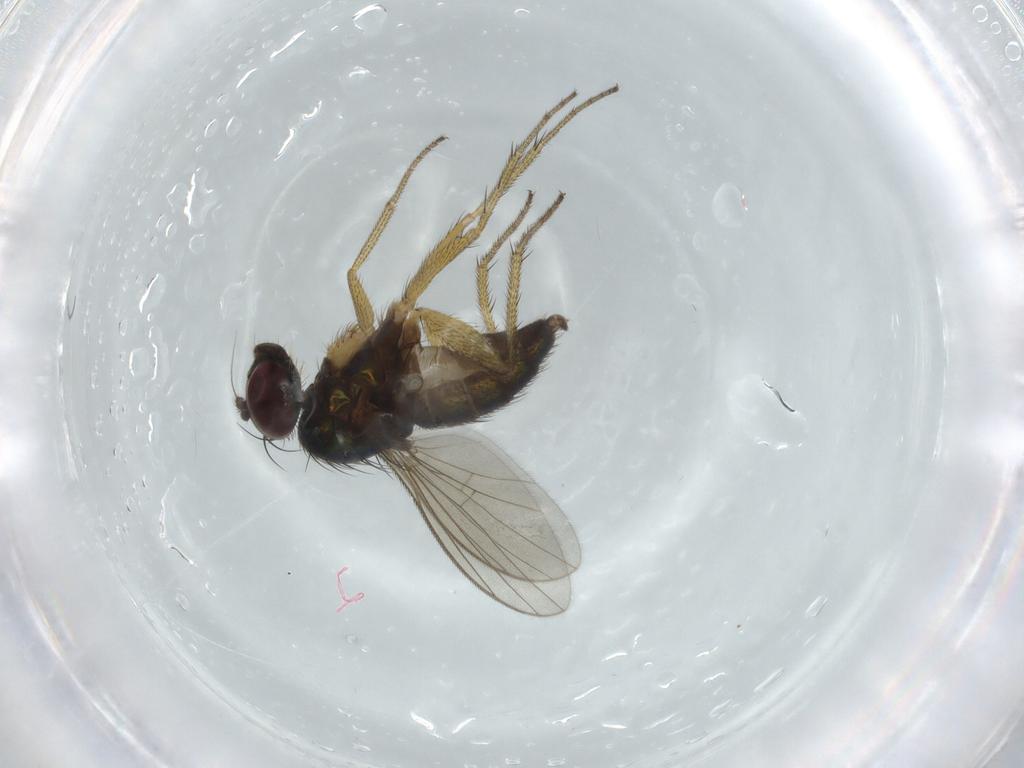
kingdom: Animalia
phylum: Arthropoda
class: Insecta
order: Diptera
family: Dolichopodidae
